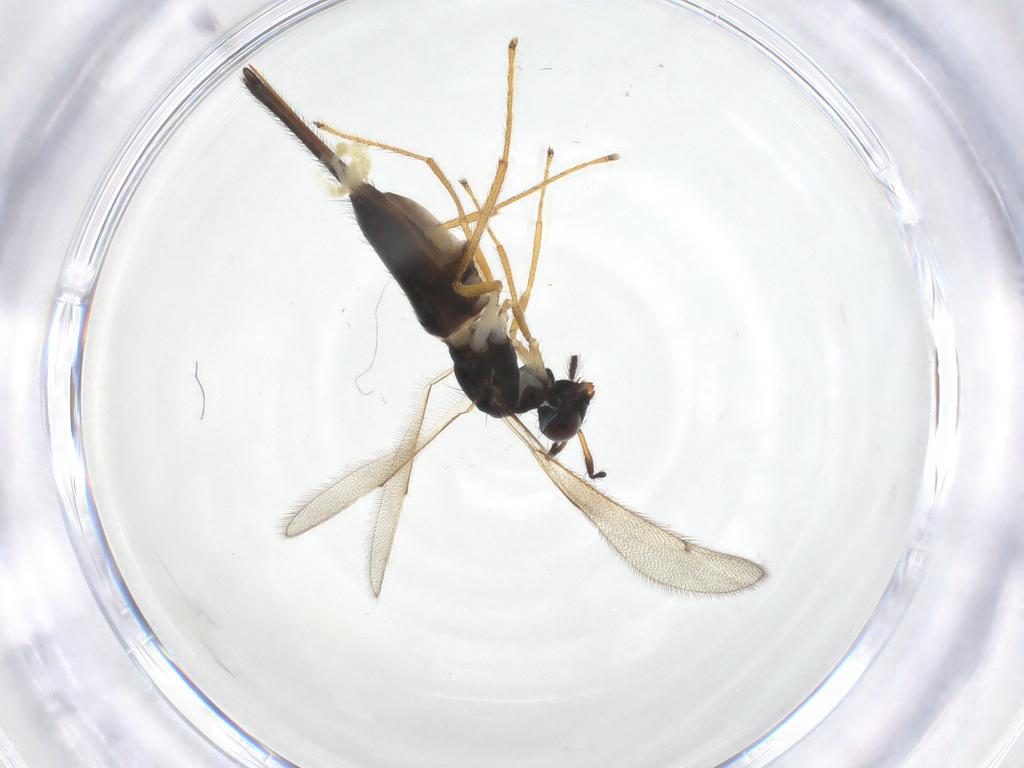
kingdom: Animalia
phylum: Arthropoda
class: Insecta
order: Hymenoptera
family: Eulophidae
